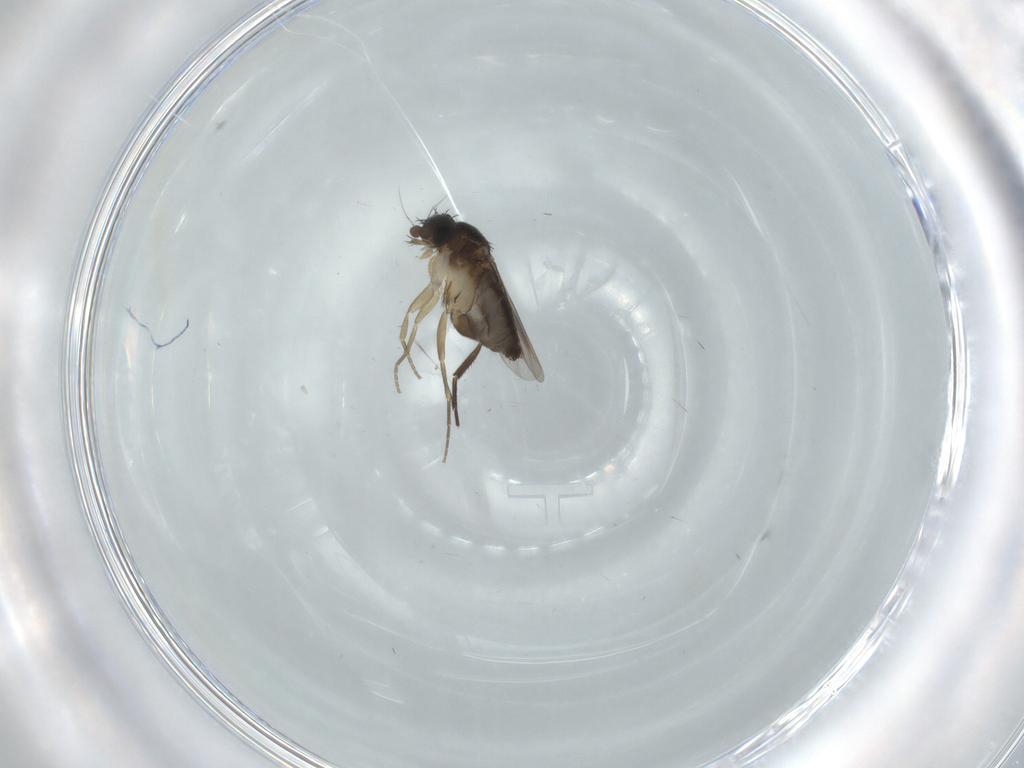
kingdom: Animalia
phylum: Arthropoda
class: Insecta
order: Diptera
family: Cecidomyiidae
